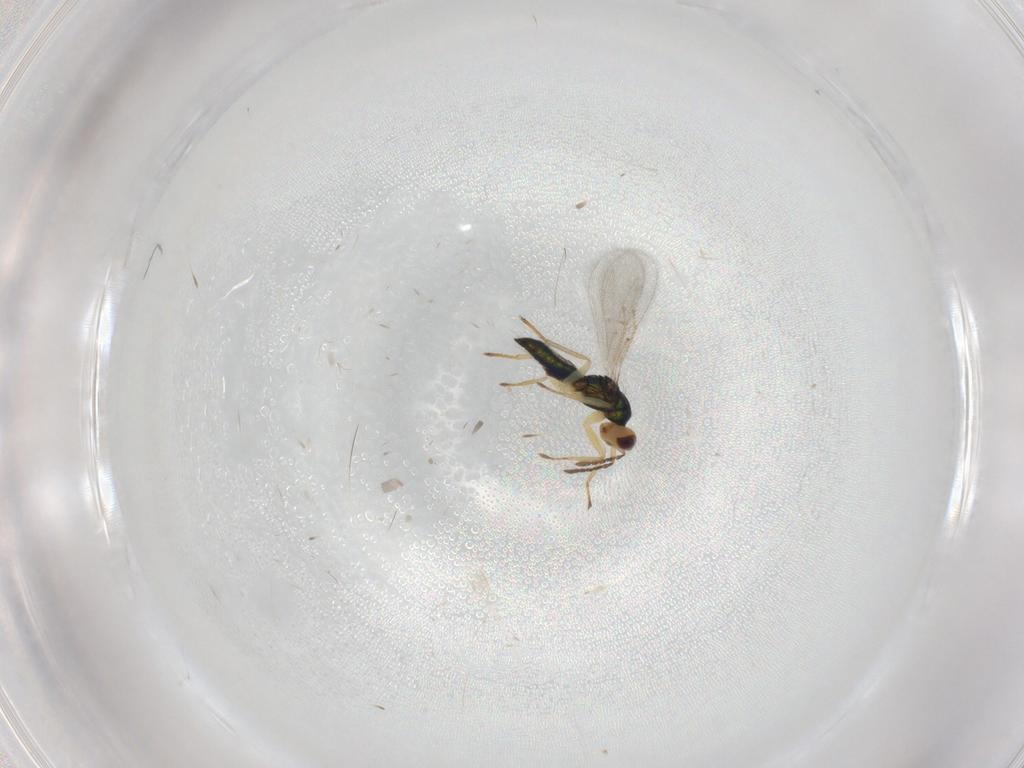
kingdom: Animalia
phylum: Arthropoda
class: Insecta
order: Hymenoptera
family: Eulophidae
